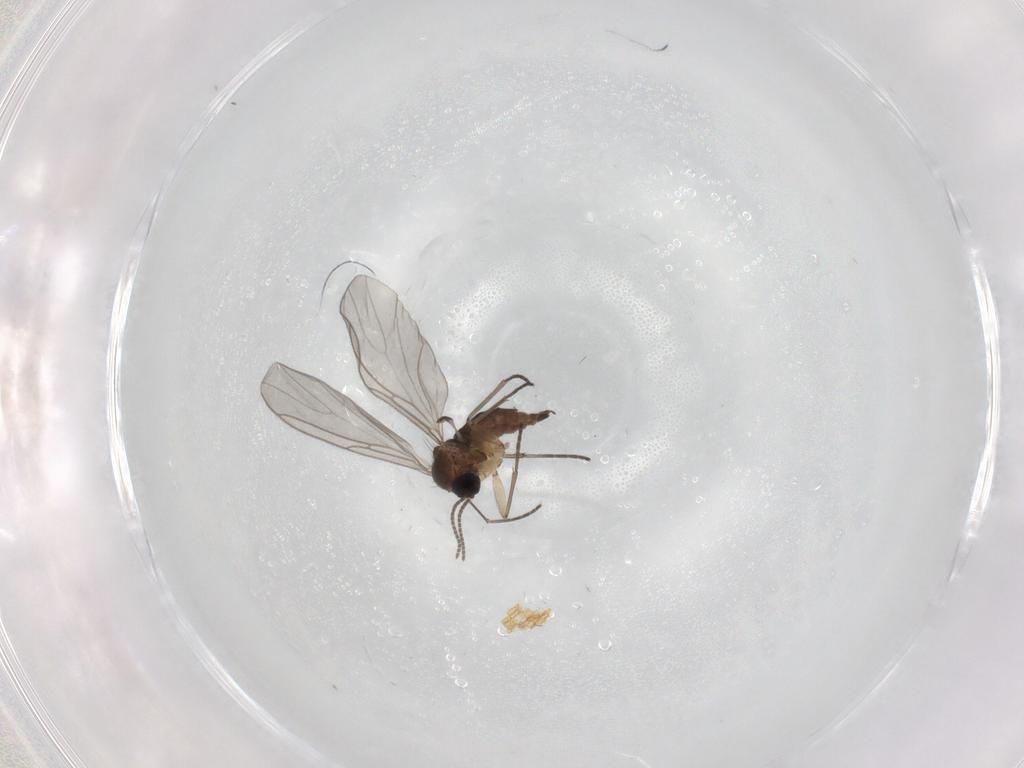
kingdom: Animalia
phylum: Arthropoda
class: Insecta
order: Diptera
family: Sciaridae
